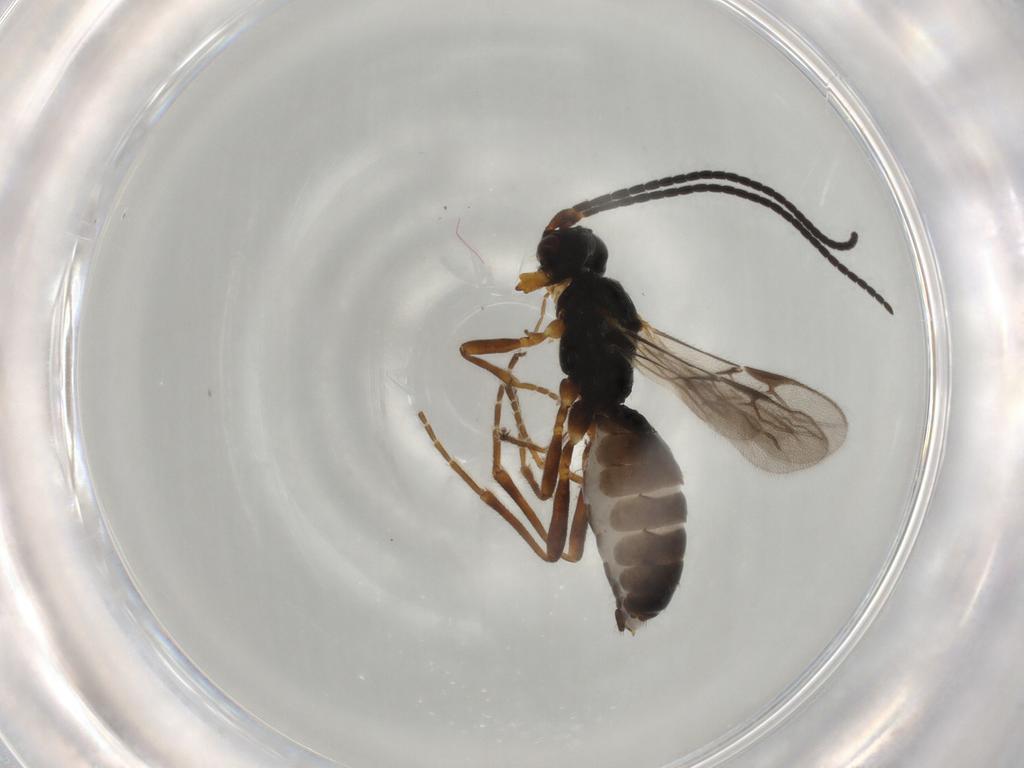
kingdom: Animalia
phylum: Arthropoda
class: Insecta
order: Hymenoptera
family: Braconidae
